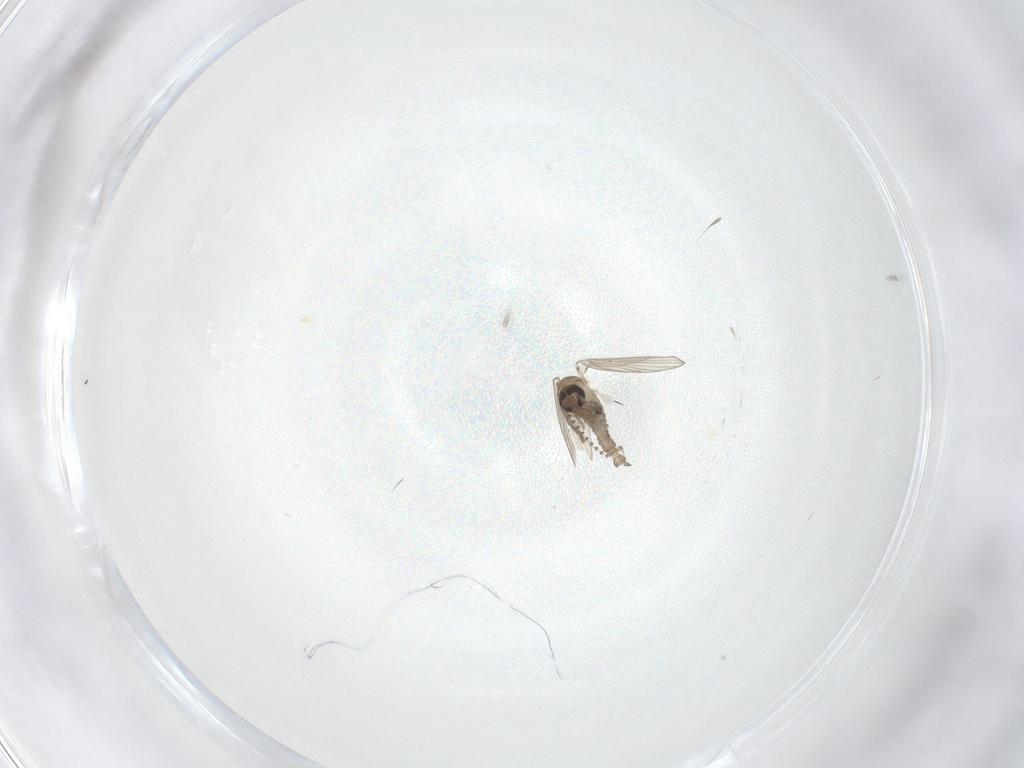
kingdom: Animalia
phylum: Arthropoda
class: Insecta
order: Diptera
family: Psychodidae
